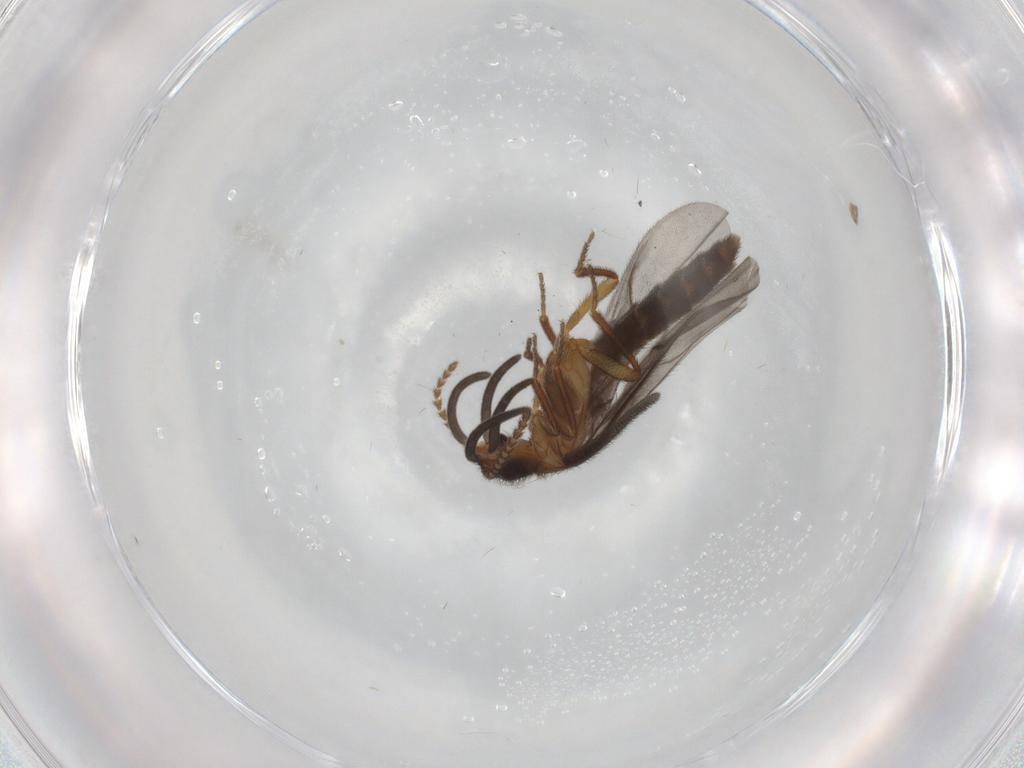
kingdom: Animalia
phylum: Arthropoda
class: Insecta
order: Coleoptera
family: Omethidae
